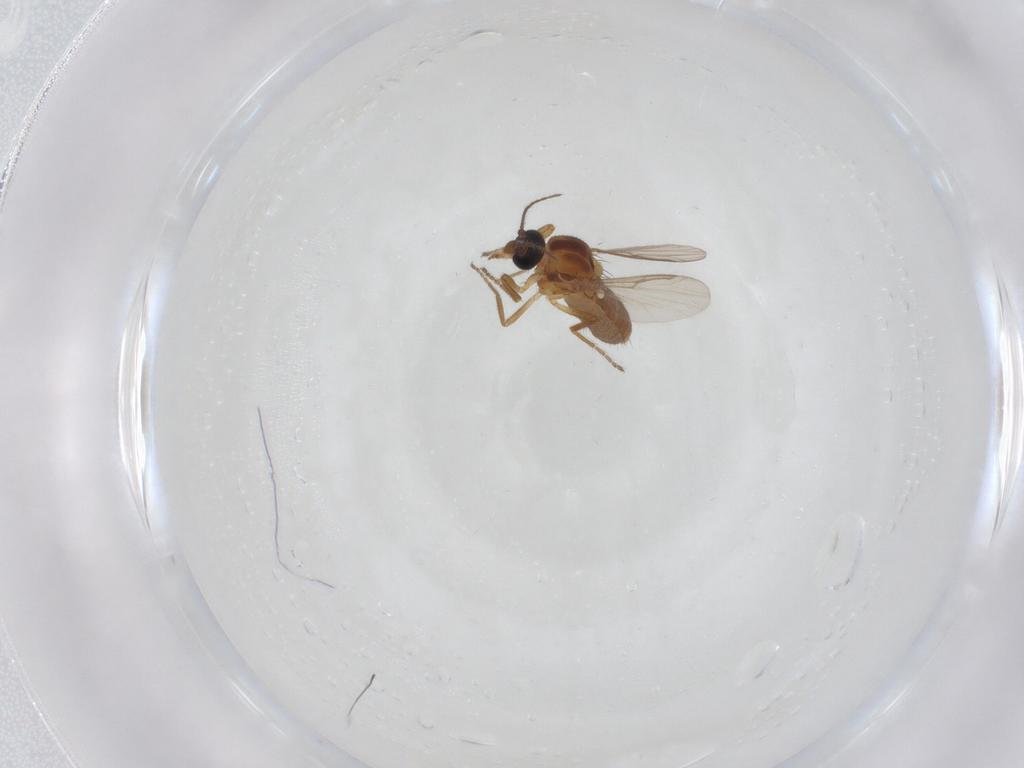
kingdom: Animalia
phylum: Arthropoda
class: Insecta
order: Diptera
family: Ceratopogonidae
